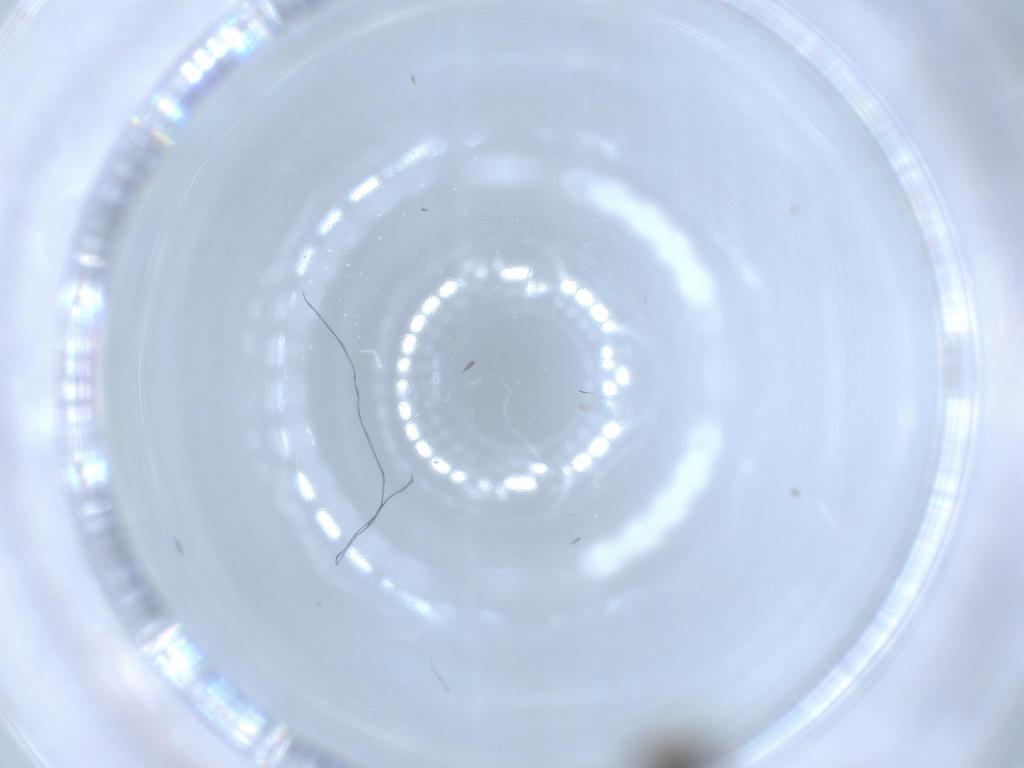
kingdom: Animalia
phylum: Arthropoda
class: Insecta
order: Diptera
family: Cecidomyiidae
